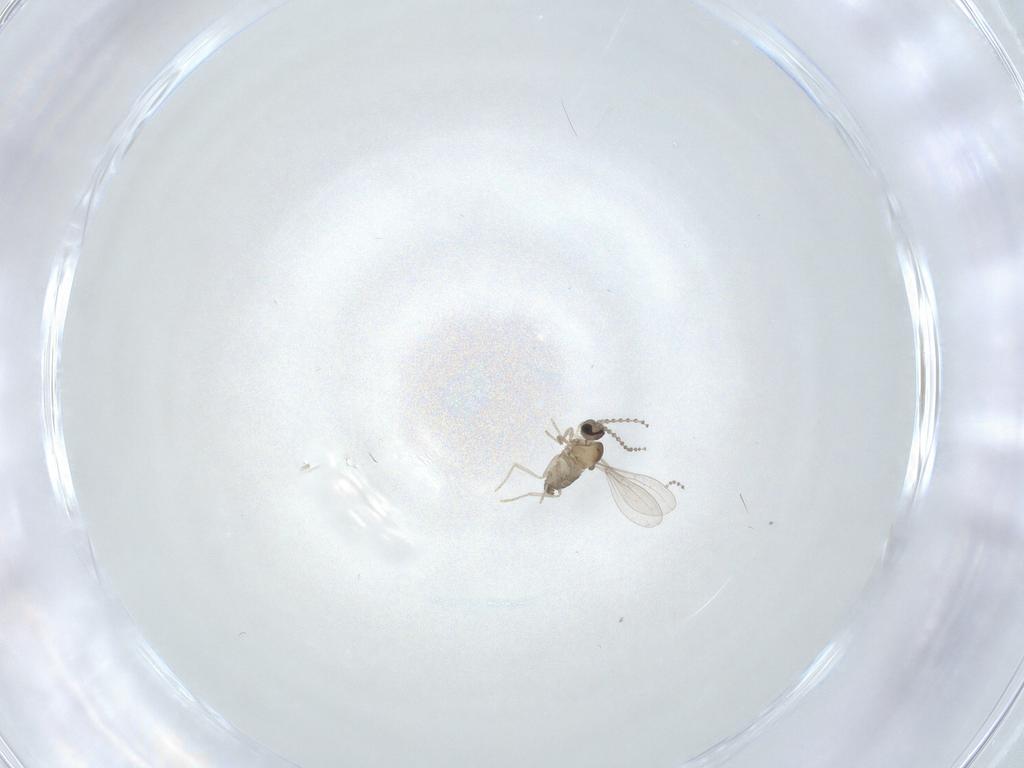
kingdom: Animalia
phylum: Arthropoda
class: Insecta
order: Diptera
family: Cecidomyiidae
